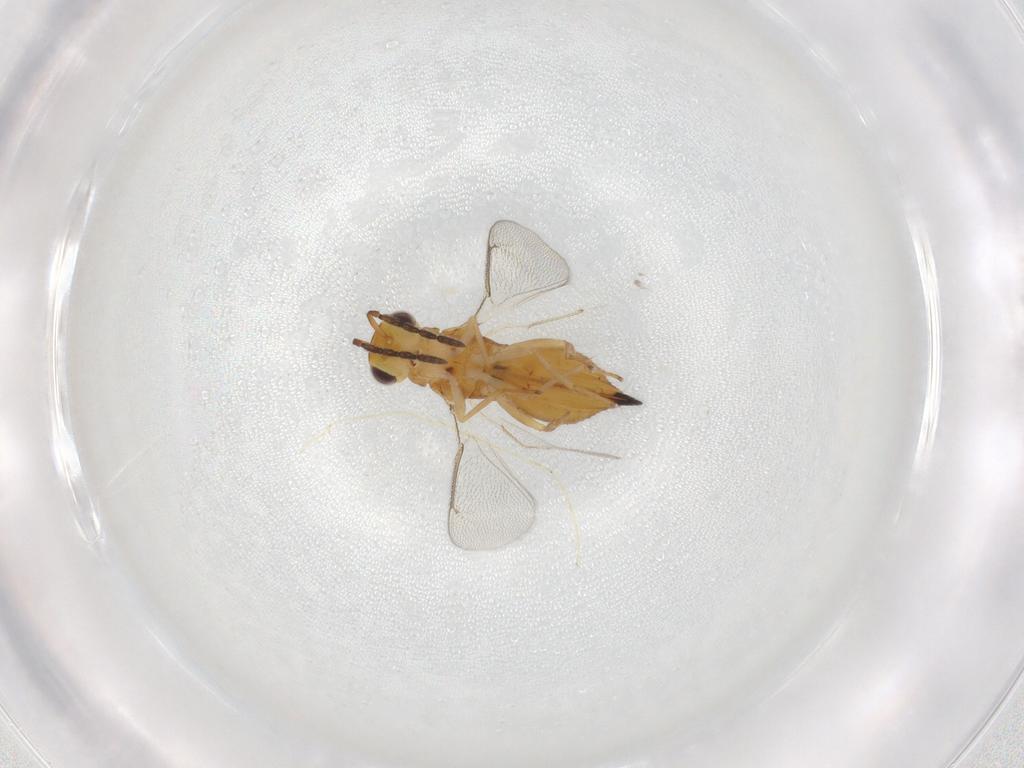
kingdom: Animalia
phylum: Arthropoda
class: Insecta
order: Hymenoptera
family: Eulophidae
